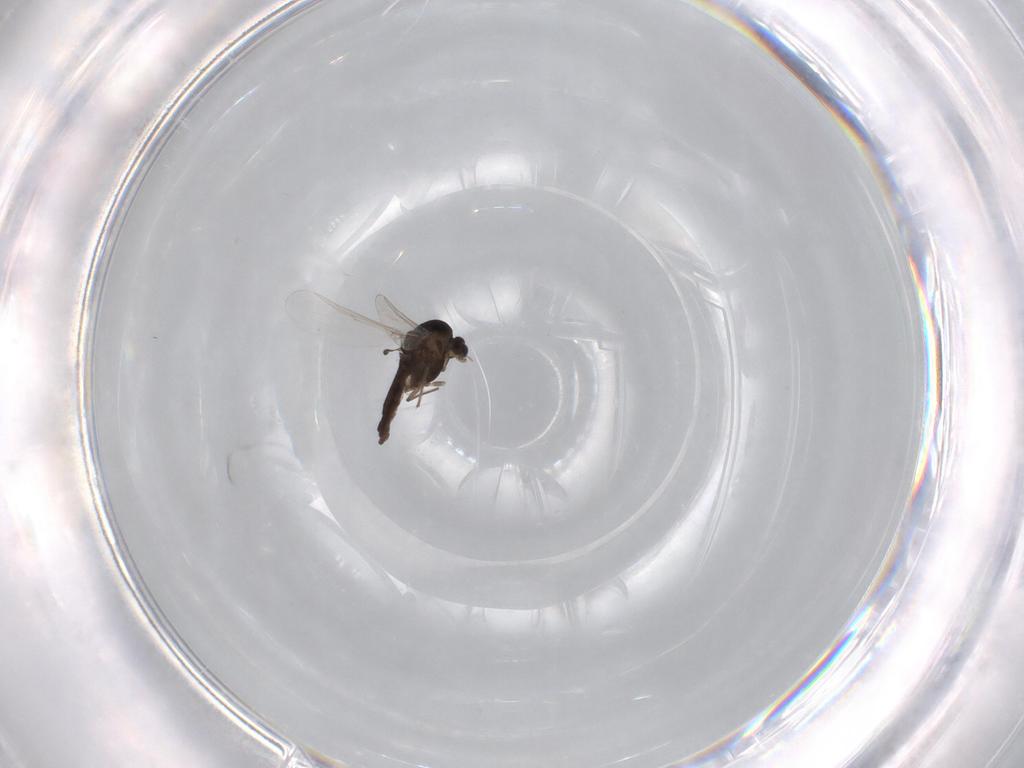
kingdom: Animalia
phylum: Arthropoda
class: Insecta
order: Diptera
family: Chironomidae
